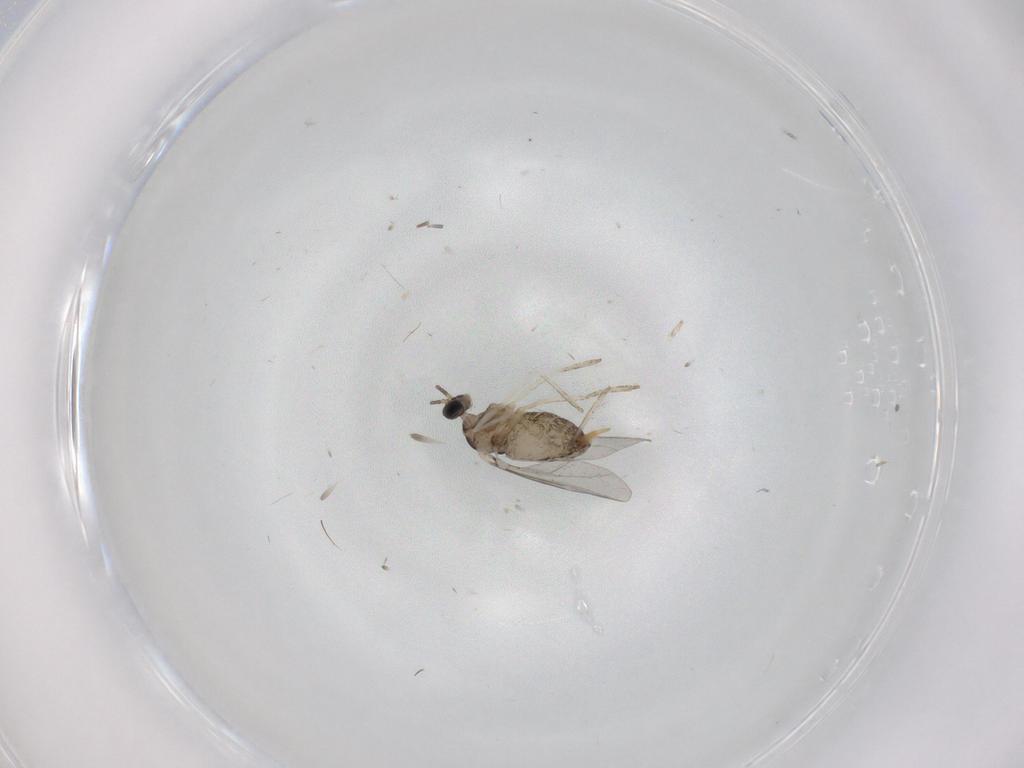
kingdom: Animalia
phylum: Arthropoda
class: Insecta
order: Diptera
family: Cecidomyiidae
